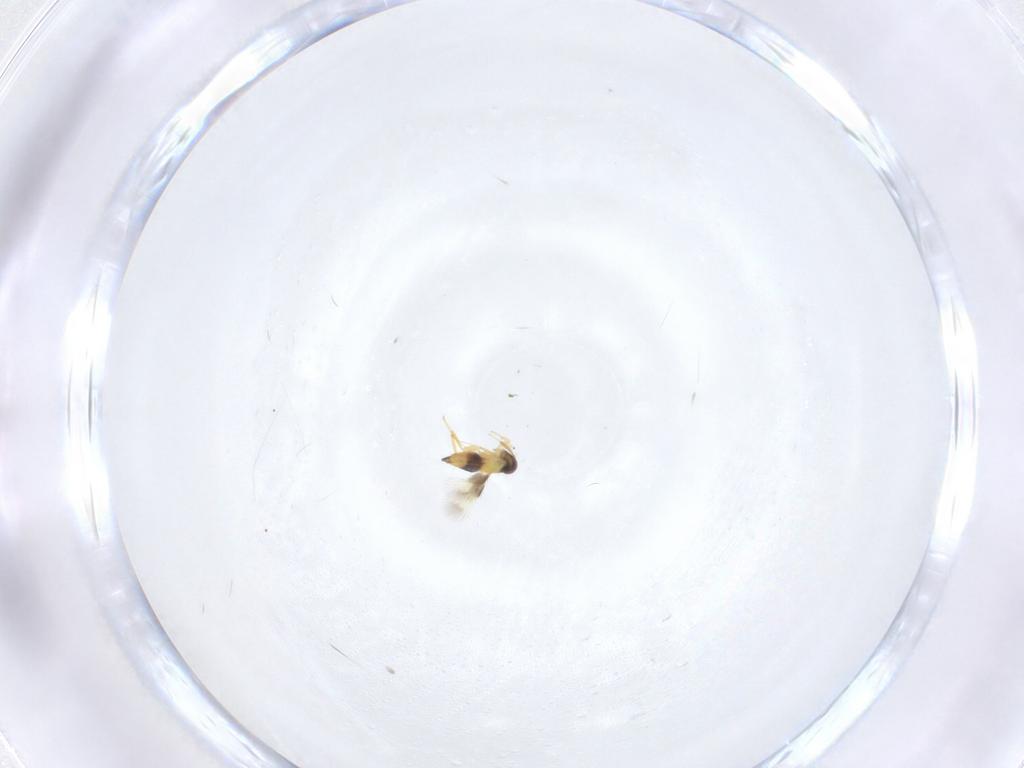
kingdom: Animalia
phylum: Arthropoda
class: Insecta
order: Hymenoptera
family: Signiphoridae
